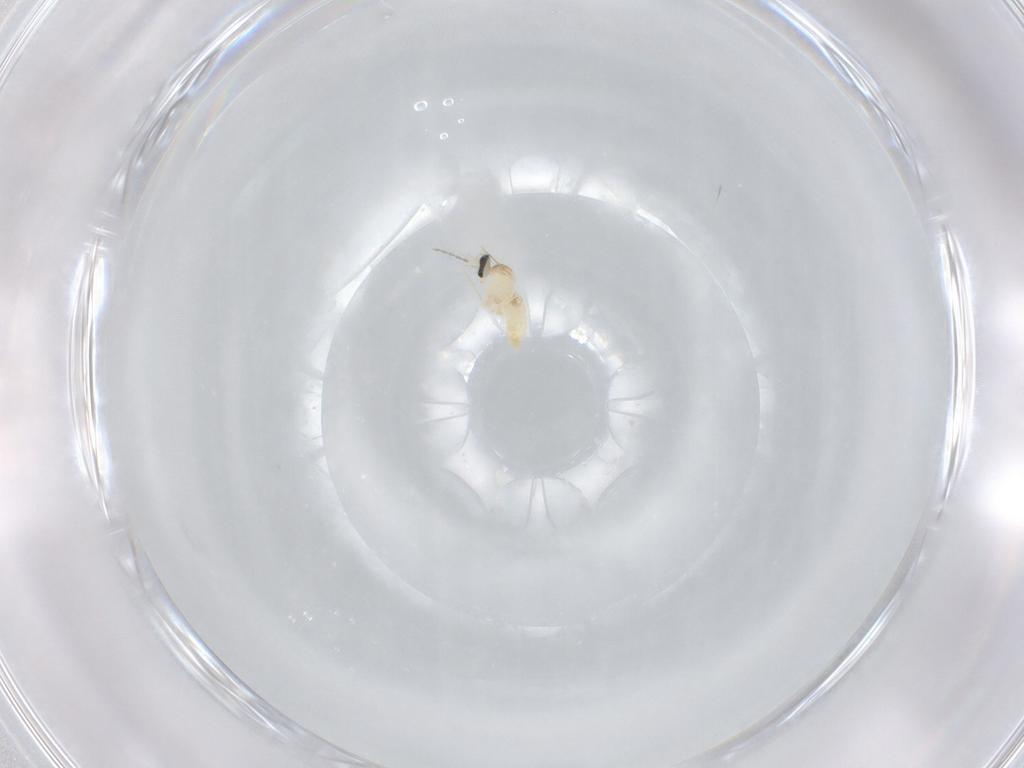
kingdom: Animalia
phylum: Arthropoda
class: Insecta
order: Diptera
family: Cecidomyiidae
